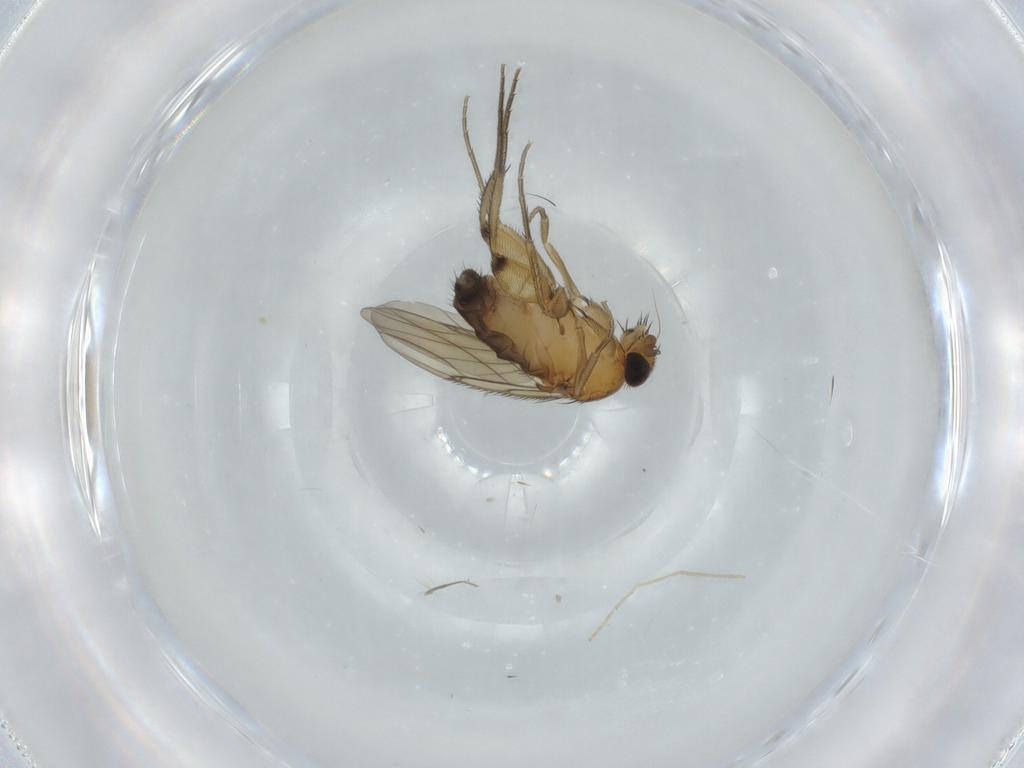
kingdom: Animalia
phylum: Arthropoda
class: Insecta
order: Diptera
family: Phoridae
